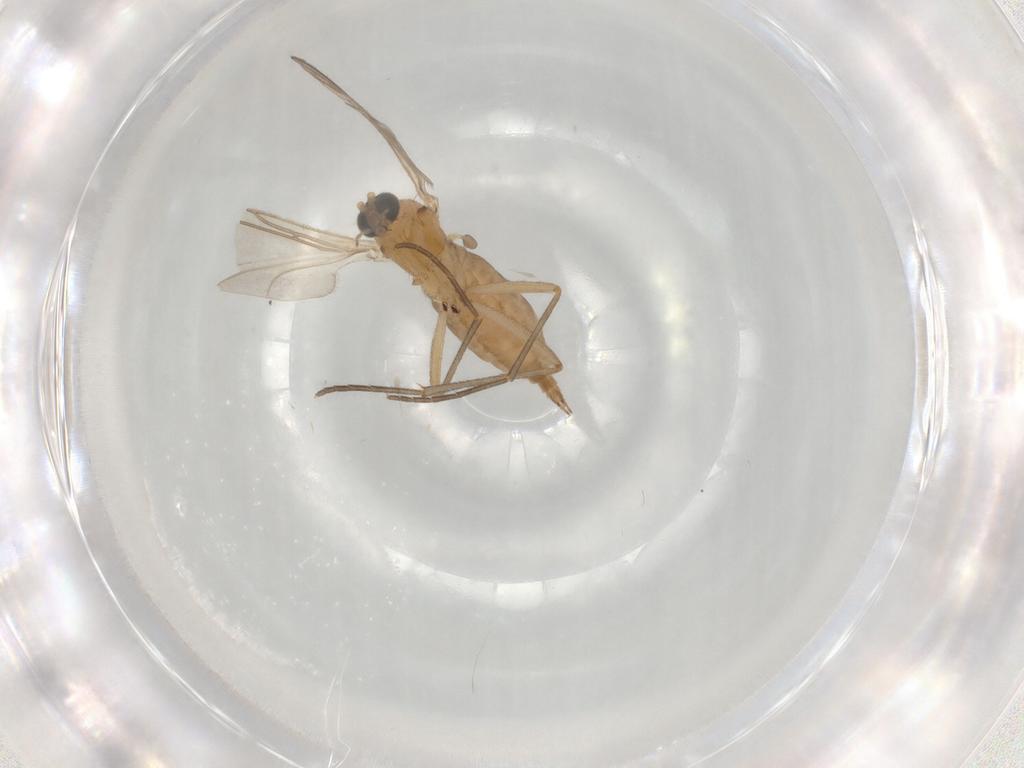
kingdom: Animalia
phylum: Arthropoda
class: Insecta
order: Diptera
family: Sciaridae
